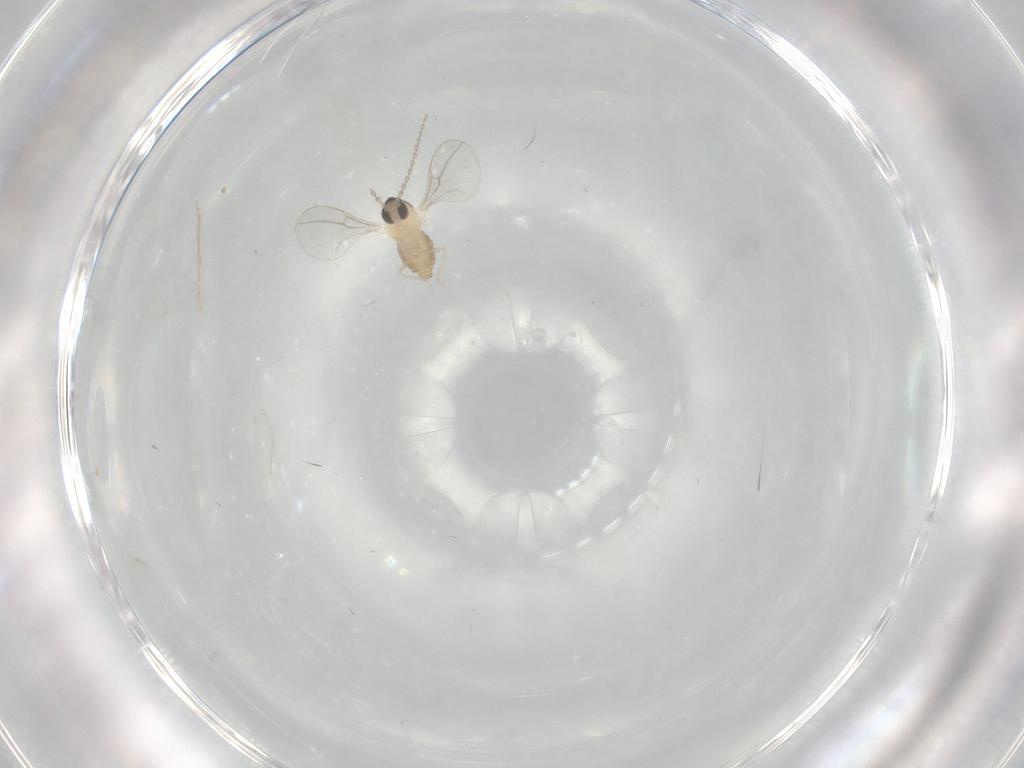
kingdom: Animalia
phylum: Arthropoda
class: Insecta
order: Diptera
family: Cecidomyiidae
